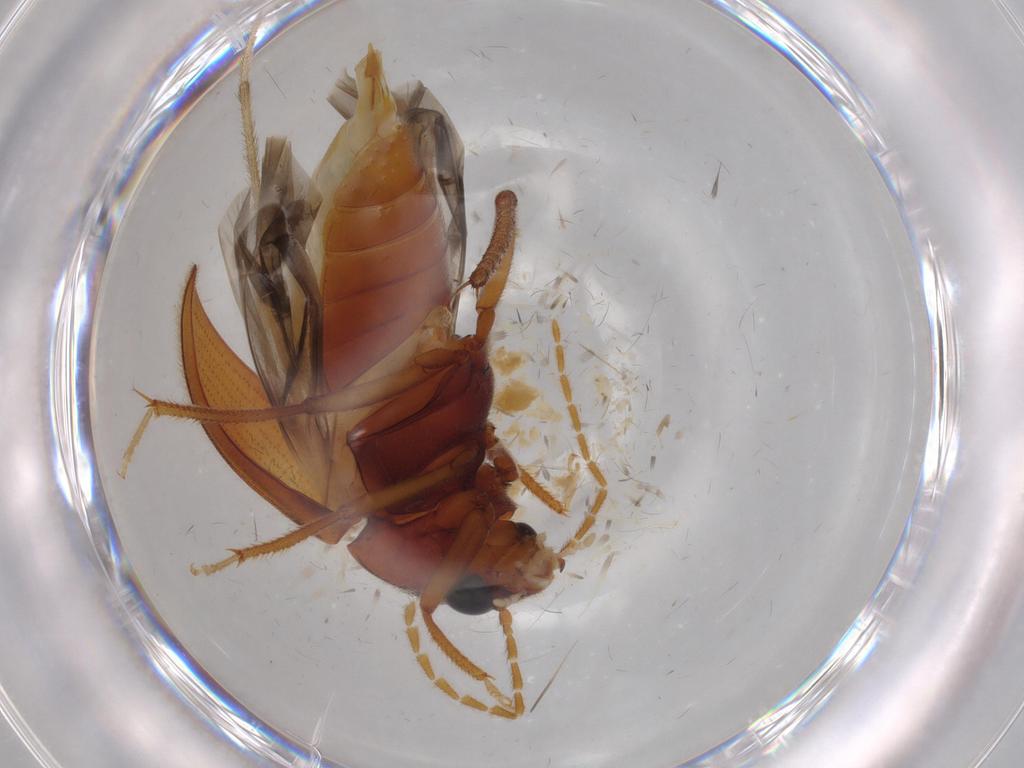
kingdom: Animalia
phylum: Arthropoda
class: Insecta
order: Coleoptera
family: Ptilodactylidae
